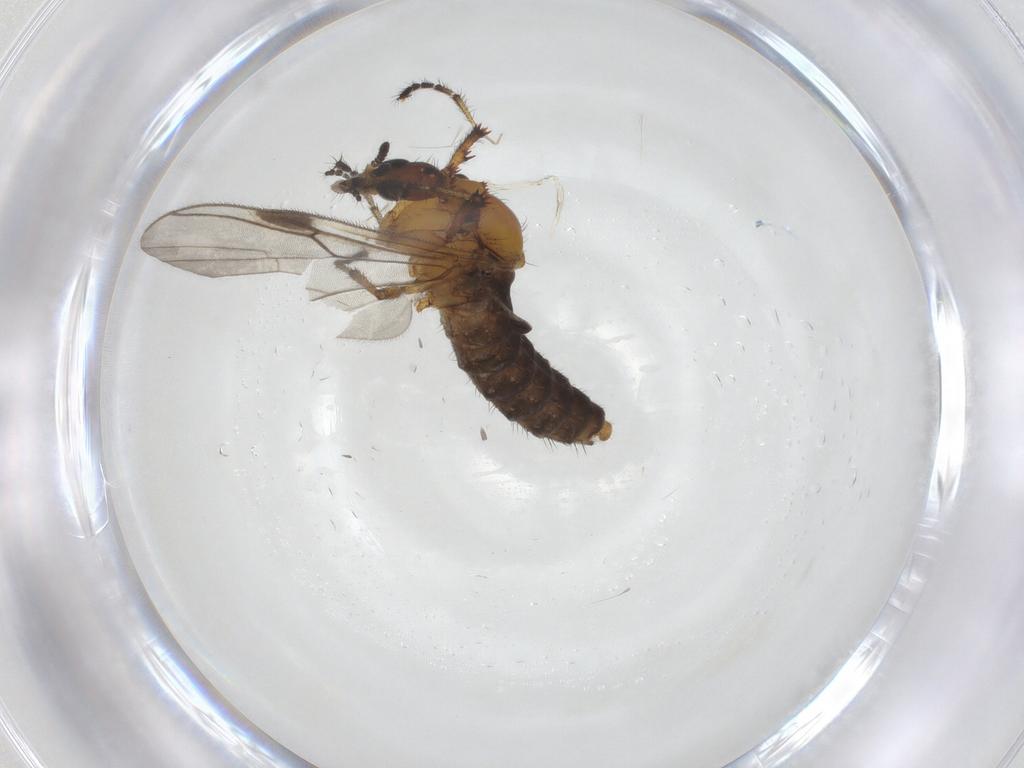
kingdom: Animalia
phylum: Arthropoda
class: Insecta
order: Diptera
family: Bibionidae
